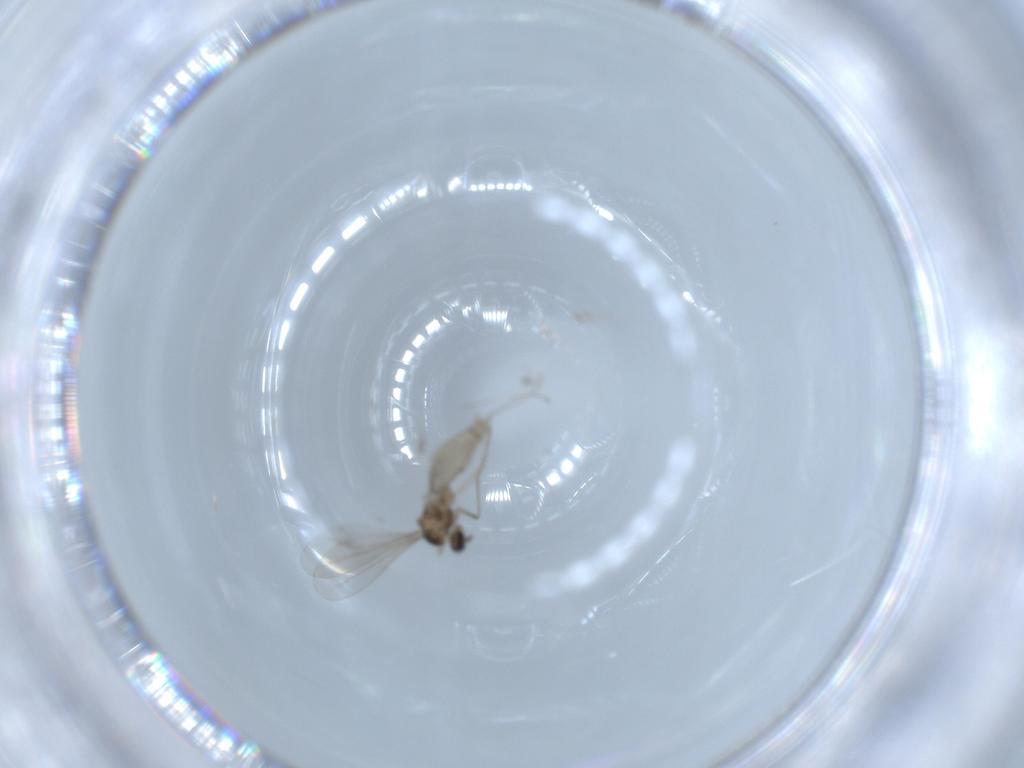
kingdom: Animalia
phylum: Arthropoda
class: Insecta
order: Diptera
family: Cecidomyiidae
